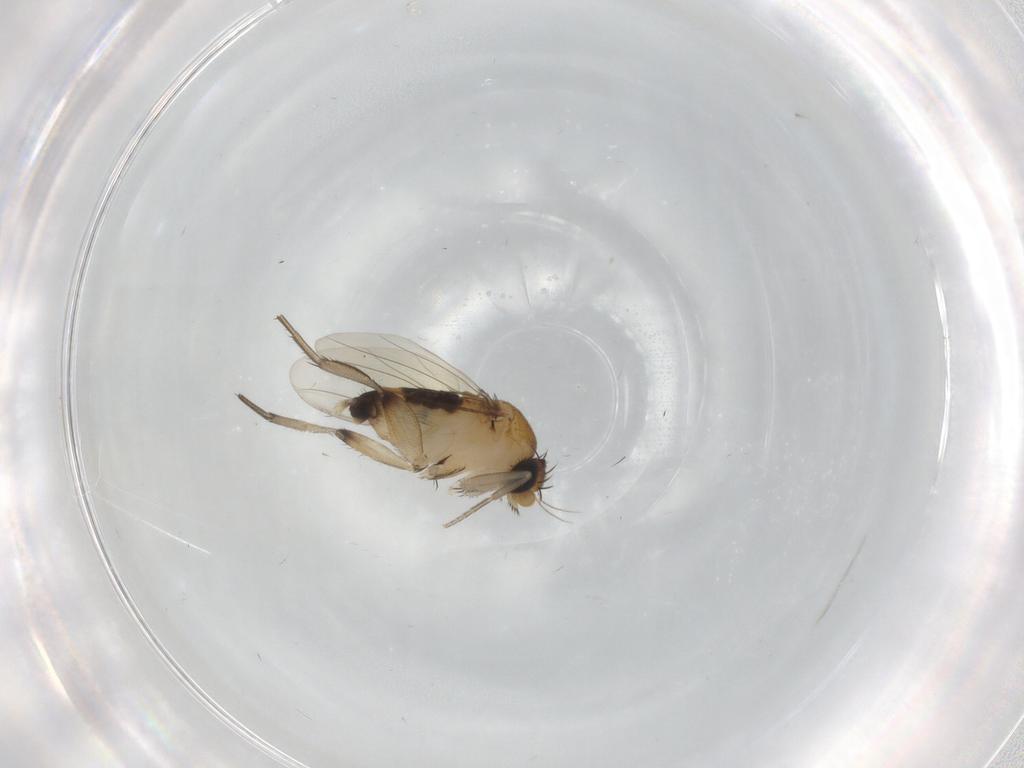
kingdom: Animalia
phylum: Arthropoda
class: Insecta
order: Diptera
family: Phoridae
